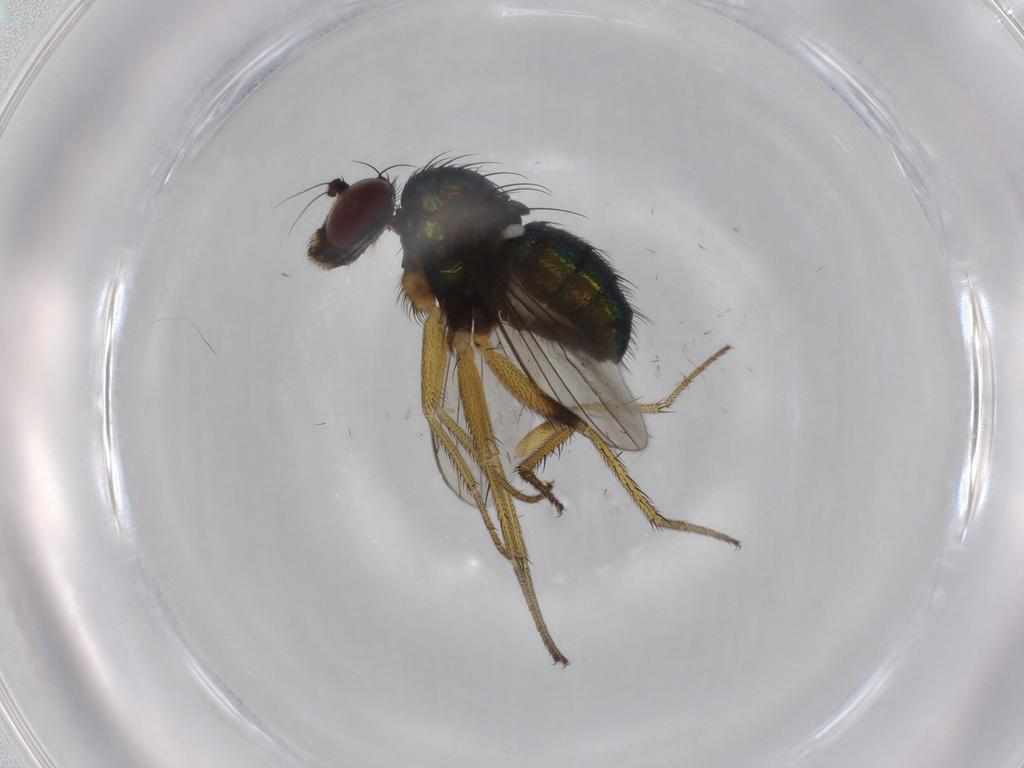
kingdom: Animalia
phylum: Arthropoda
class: Insecta
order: Diptera
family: Dolichopodidae
